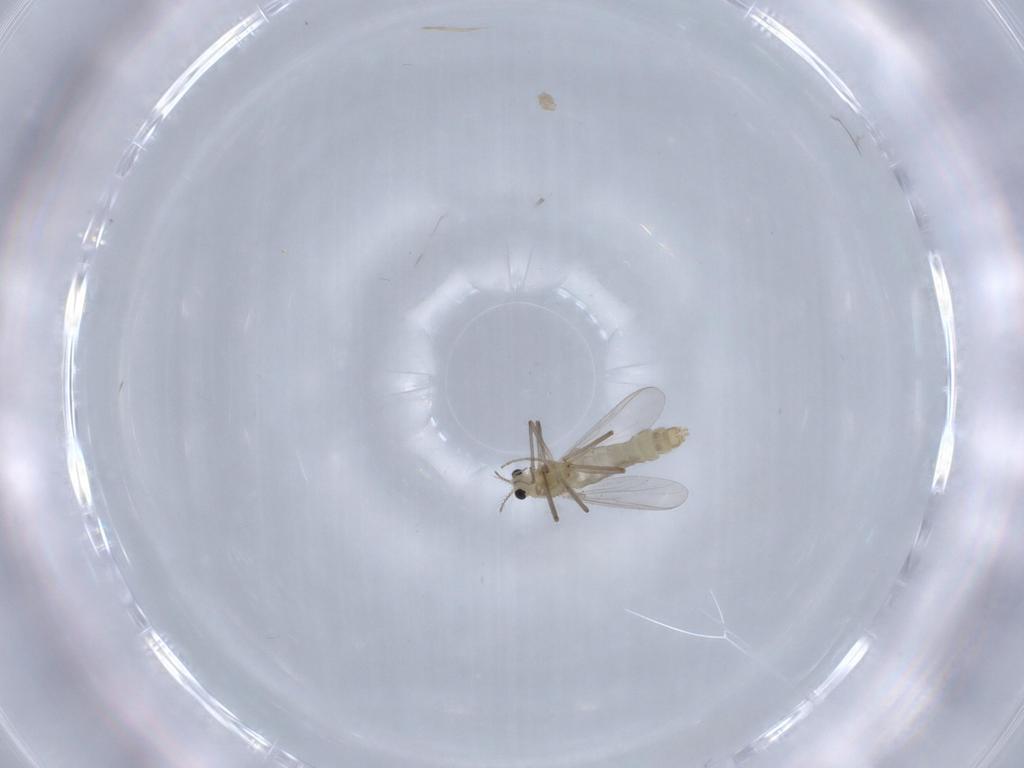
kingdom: Animalia
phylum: Arthropoda
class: Insecta
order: Diptera
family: Chironomidae
